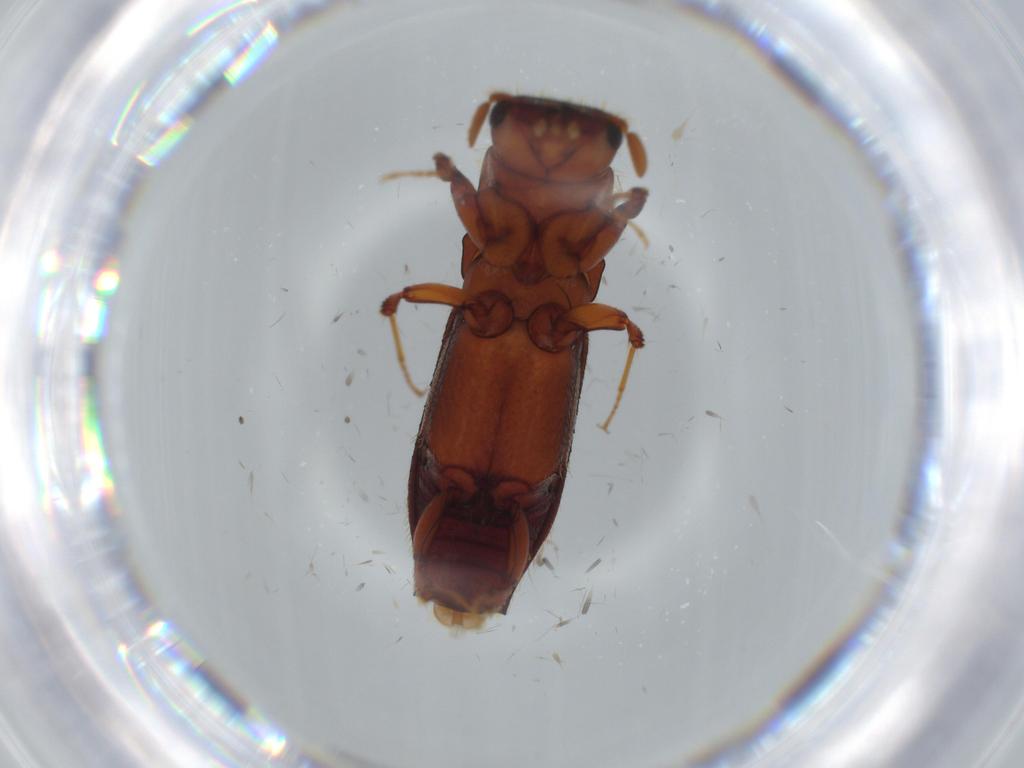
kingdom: Animalia
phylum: Arthropoda
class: Insecta
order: Coleoptera
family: Curculionidae
